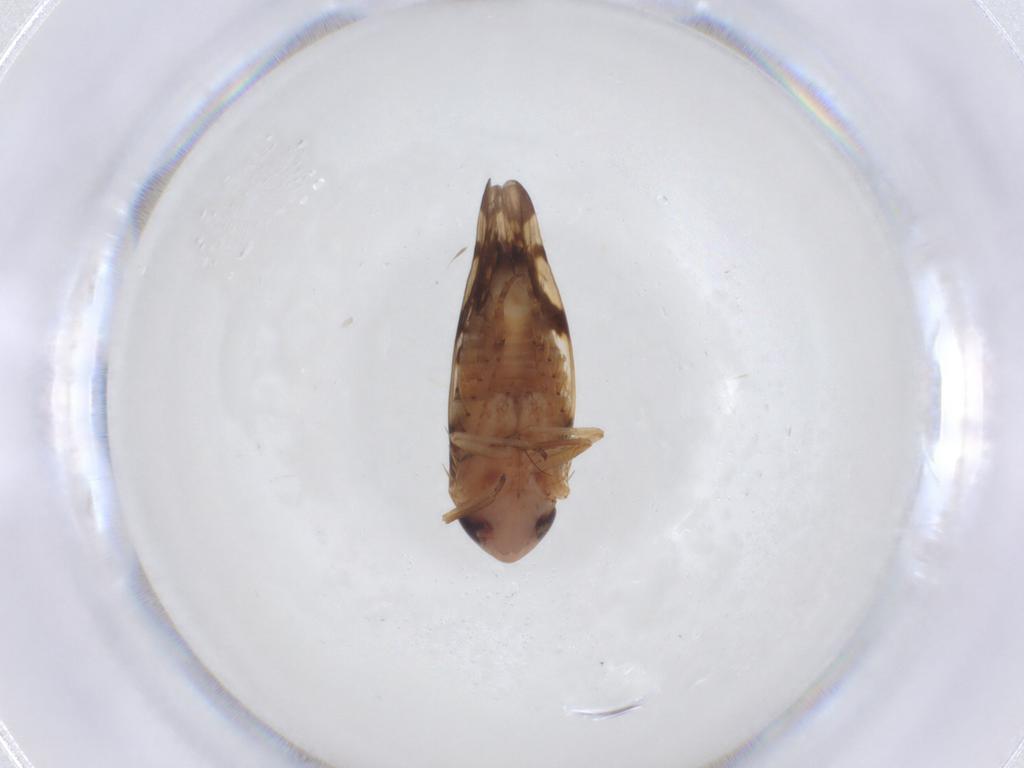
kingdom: Animalia
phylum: Arthropoda
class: Insecta
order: Hemiptera
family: Cicadellidae
